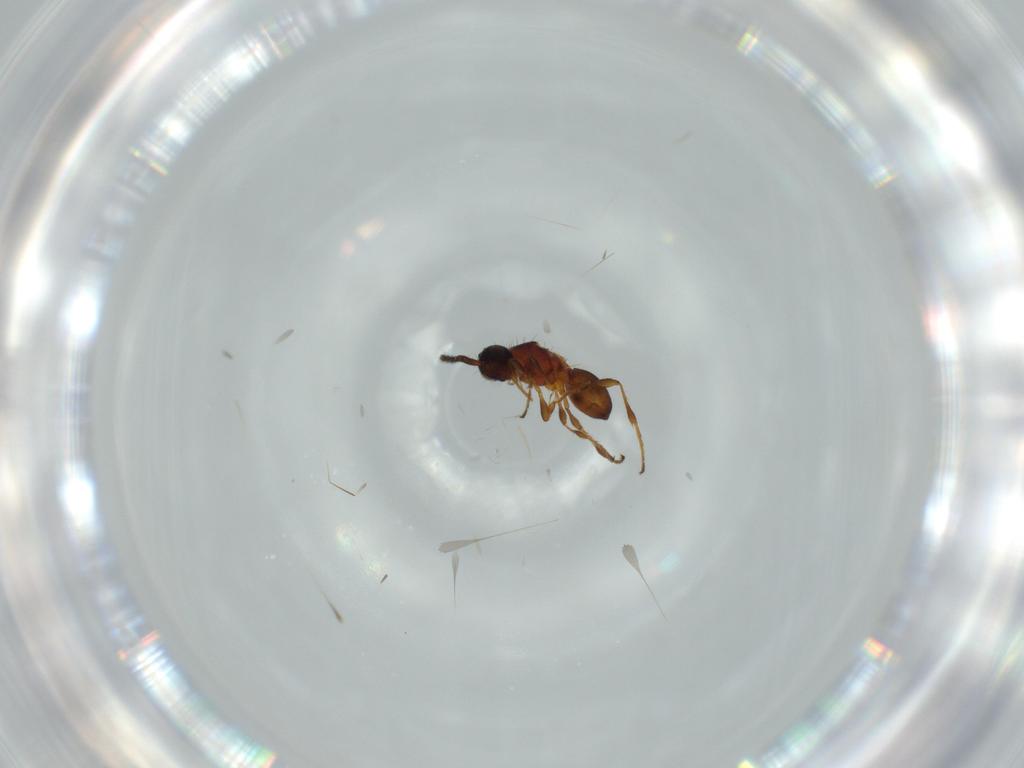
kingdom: Animalia
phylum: Arthropoda
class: Insecta
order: Hymenoptera
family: Diapriidae
